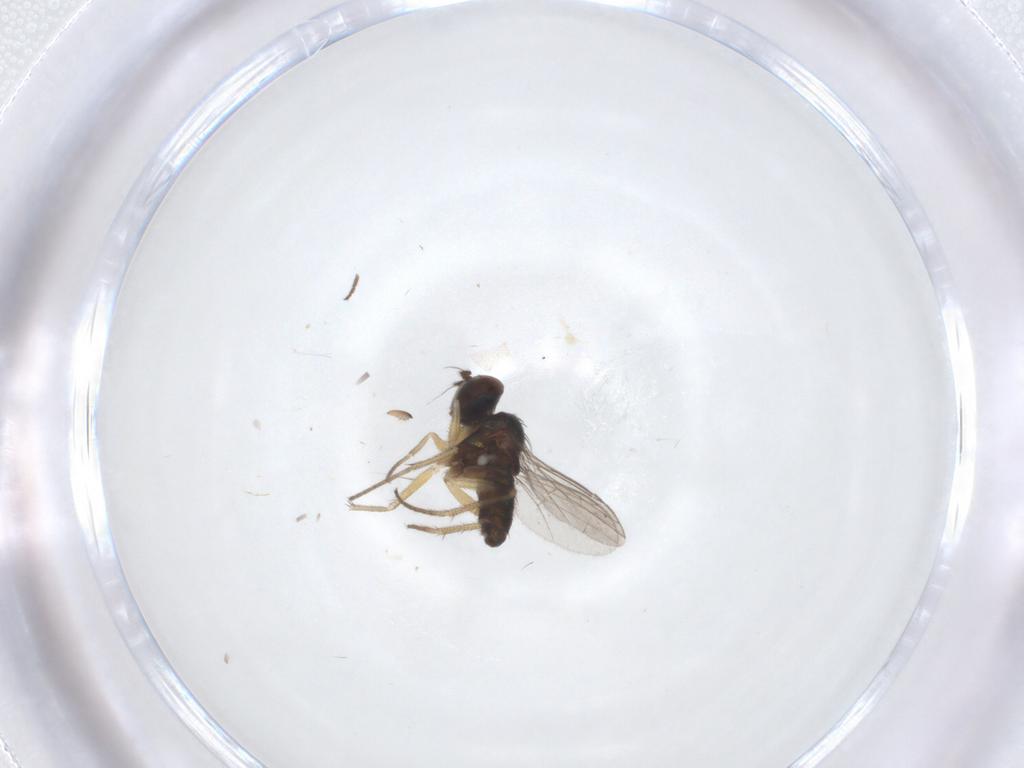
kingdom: Animalia
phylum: Arthropoda
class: Insecta
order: Diptera
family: Dolichopodidae
